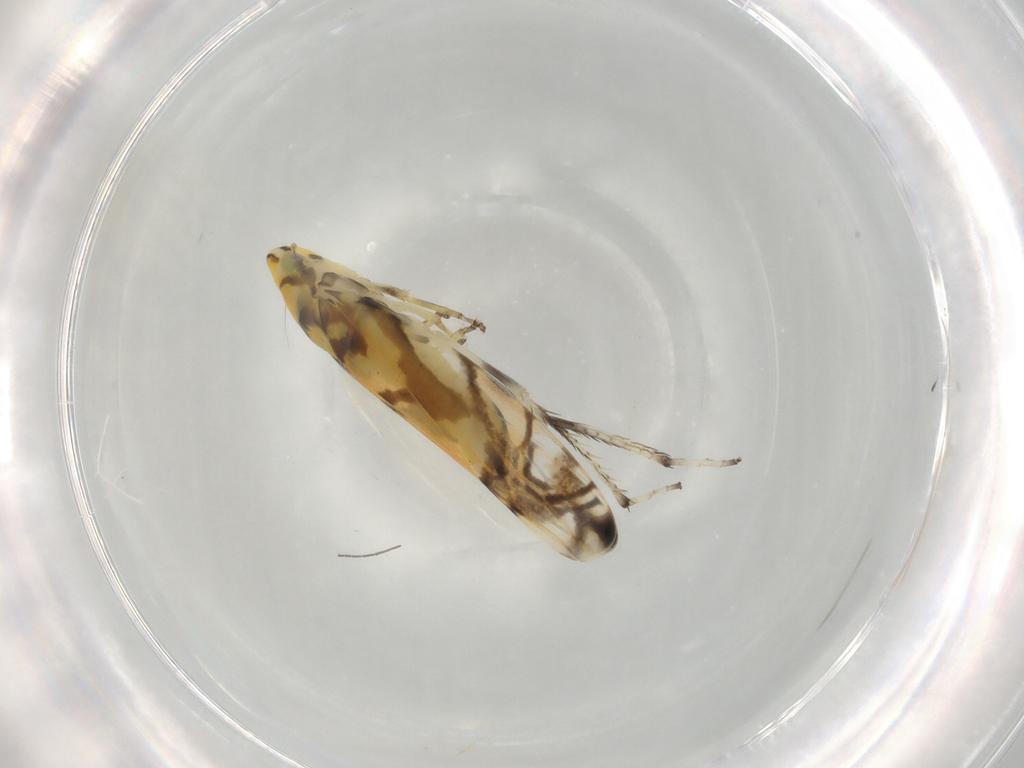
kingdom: Animalia
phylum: Arthropoda
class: Insecta
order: Hemiptera
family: Cicadellidae
